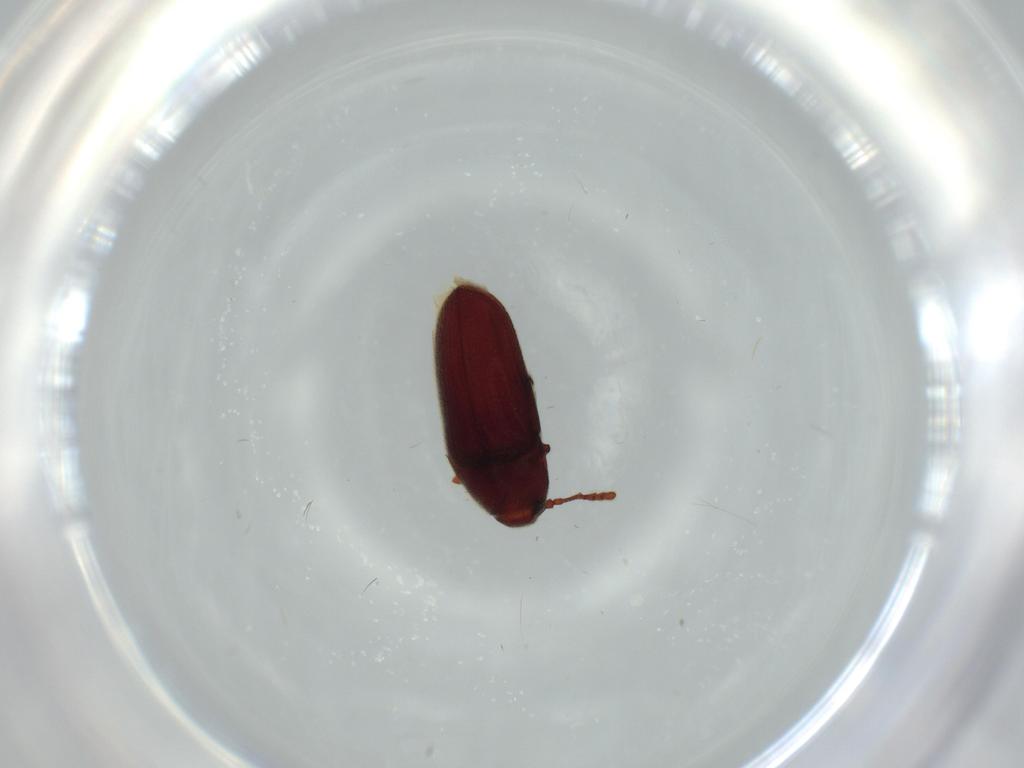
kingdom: Animalia
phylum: Arthropoda
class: Insecta
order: Coleoptera
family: Throscidae
